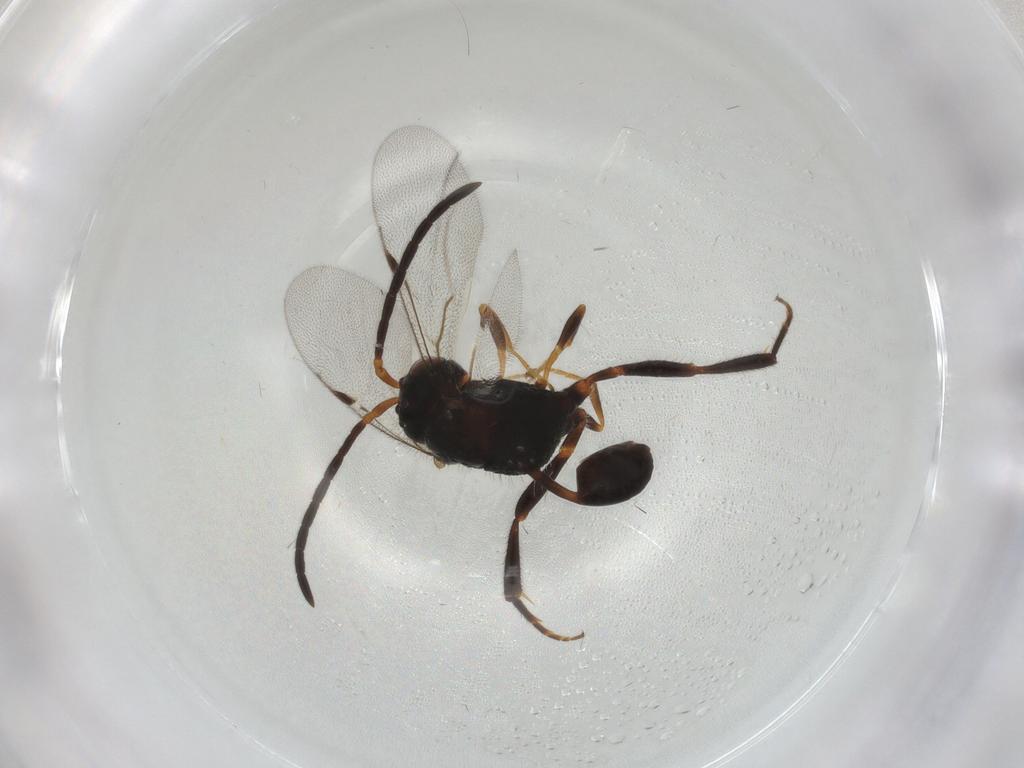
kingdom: Animalia
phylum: Arthropoda
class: Insecta
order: Hymenoptera
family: Evaniidae
